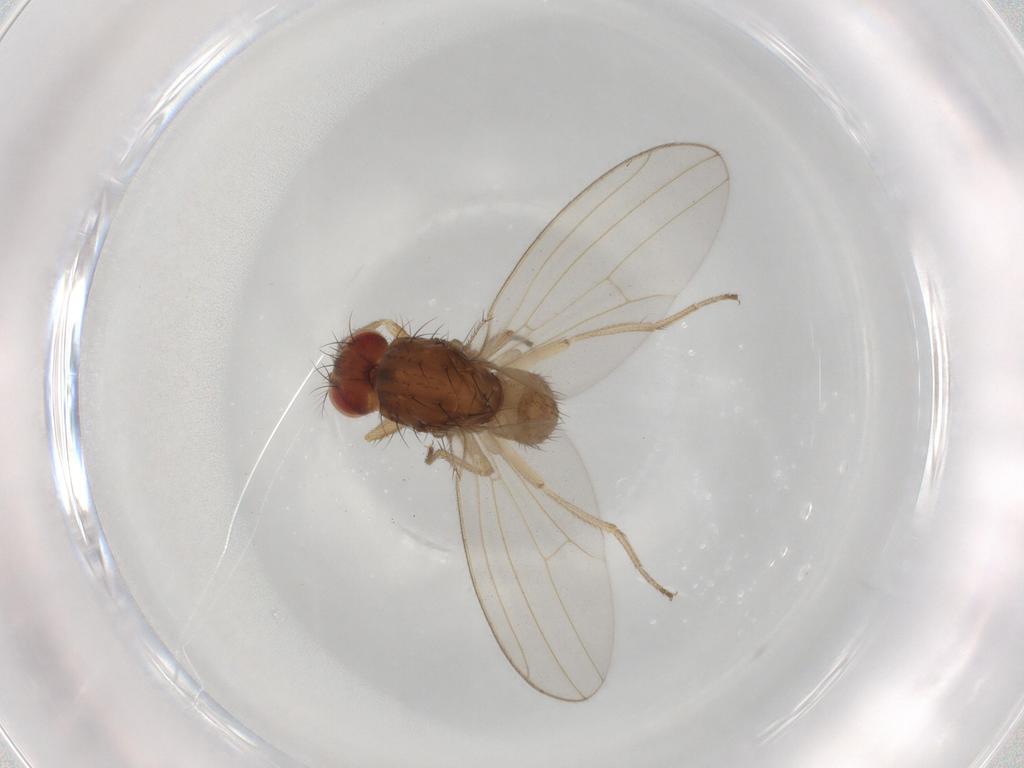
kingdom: Animalia
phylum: Arthropoda
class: Insecta
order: Diptera
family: Drosophilidae
